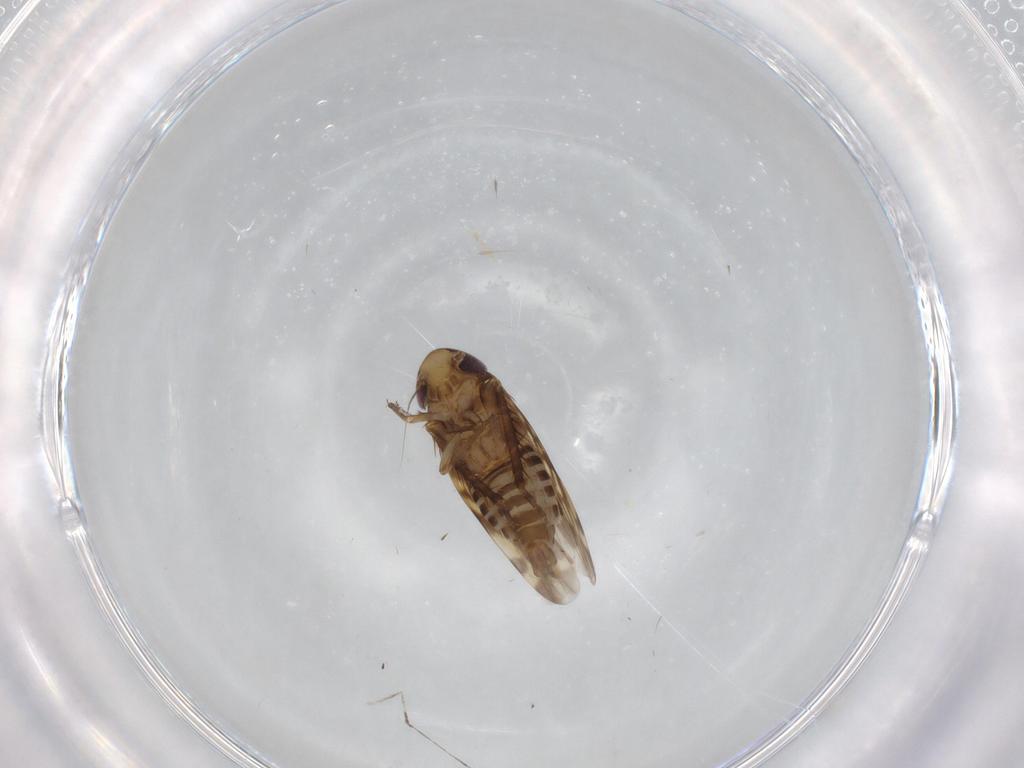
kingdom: Animalia
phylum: Arthropoda
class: Insecta
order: Hemiptera
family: Cicadellidae
